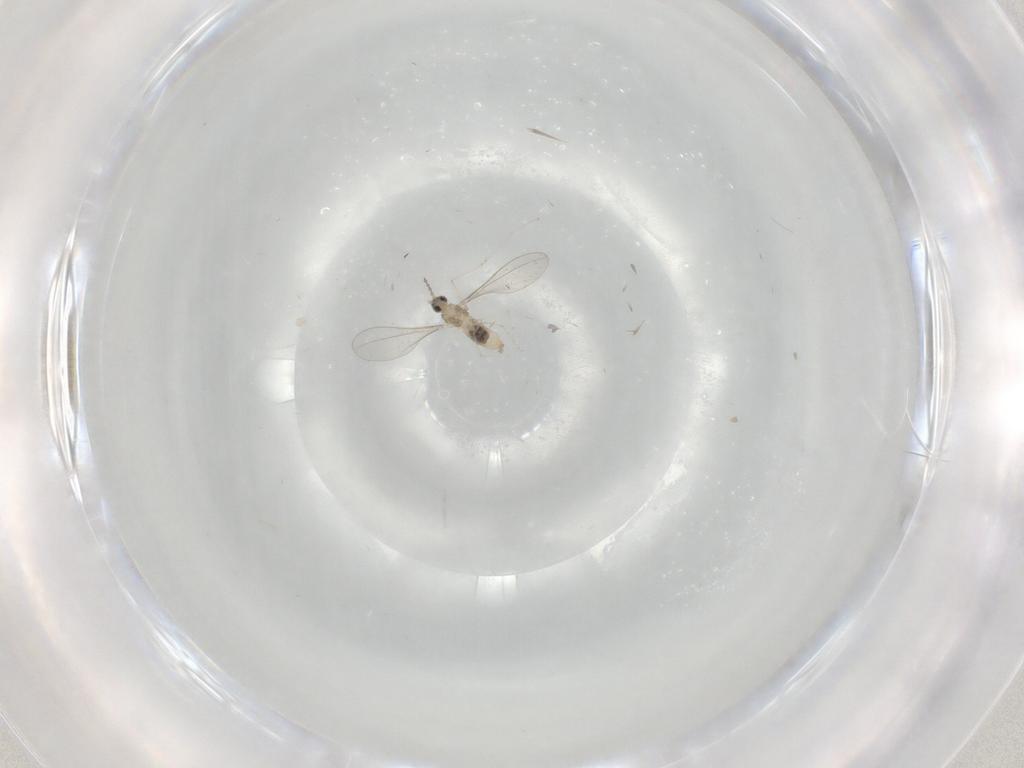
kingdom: Animalia
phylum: Arthropoda
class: Insecta
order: Diptera
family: Cecidomyiidae
